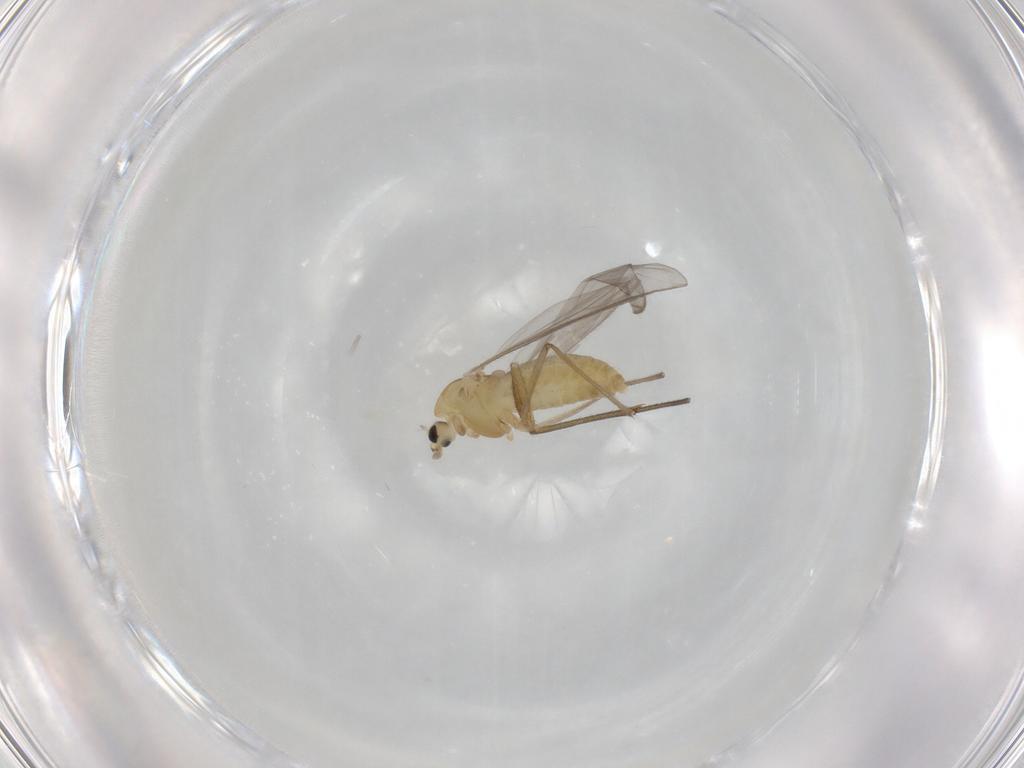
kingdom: Animalia
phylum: Arthropoda
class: Insecta
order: Diptera
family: Chironomidae
